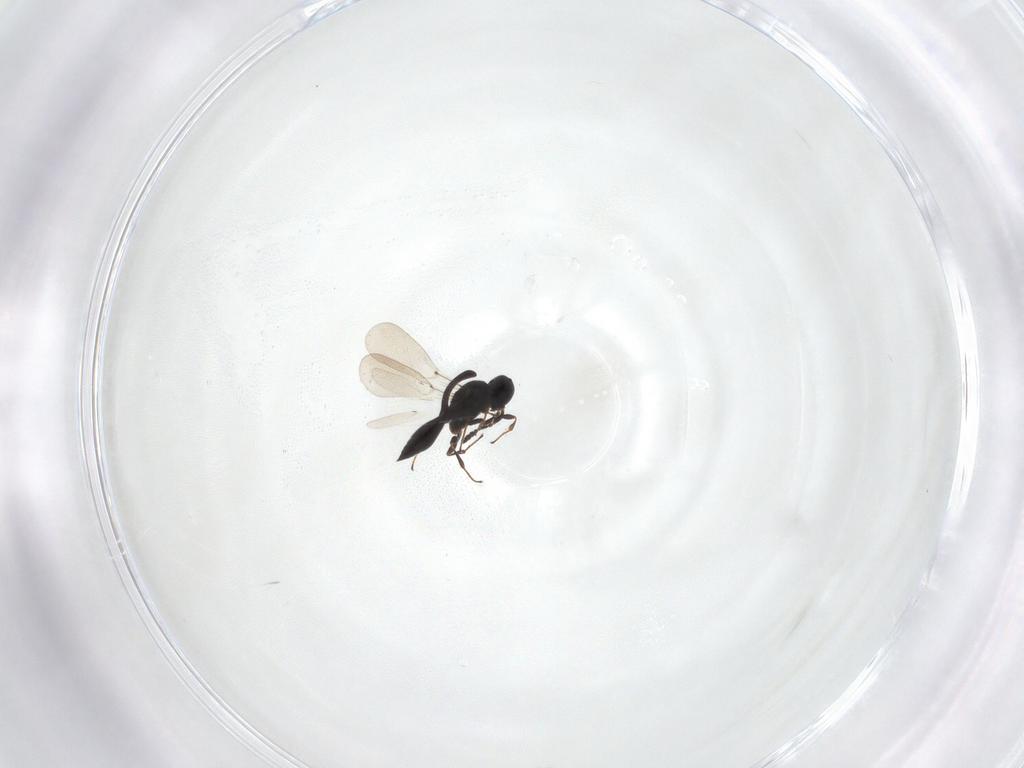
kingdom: Animalia
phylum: Arthropoda
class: Insecta
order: Hymenoptera
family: Platygastridae
